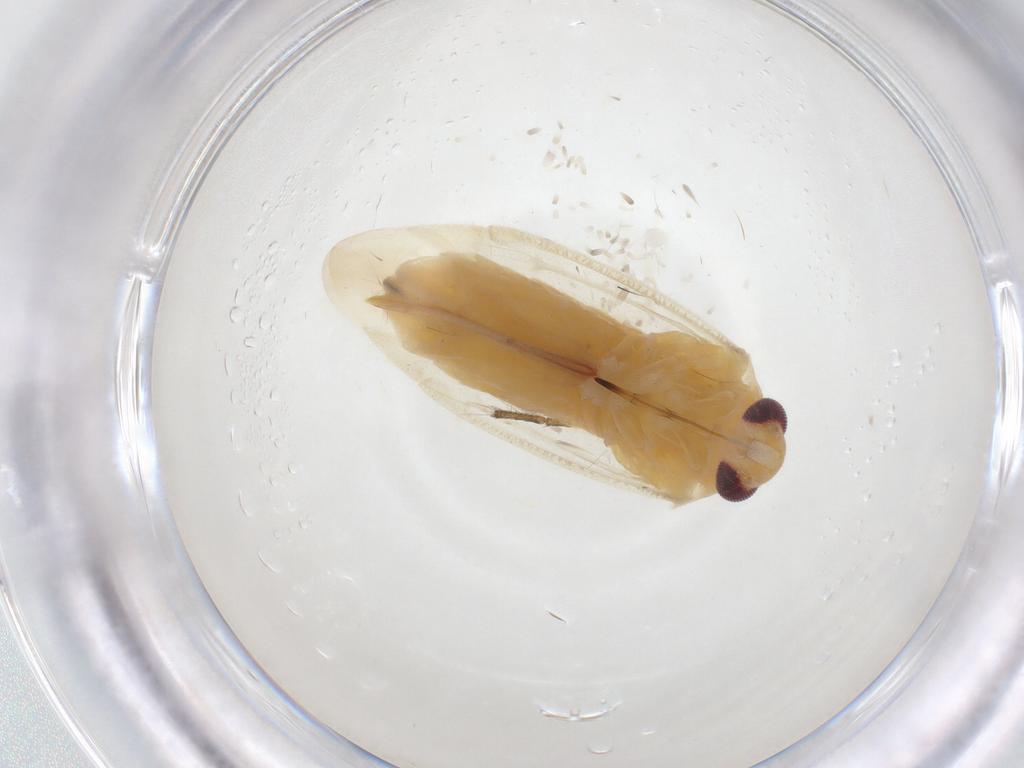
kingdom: Animalia
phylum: Arthropoda
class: Insecta
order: Hemiptera
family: Miridae
